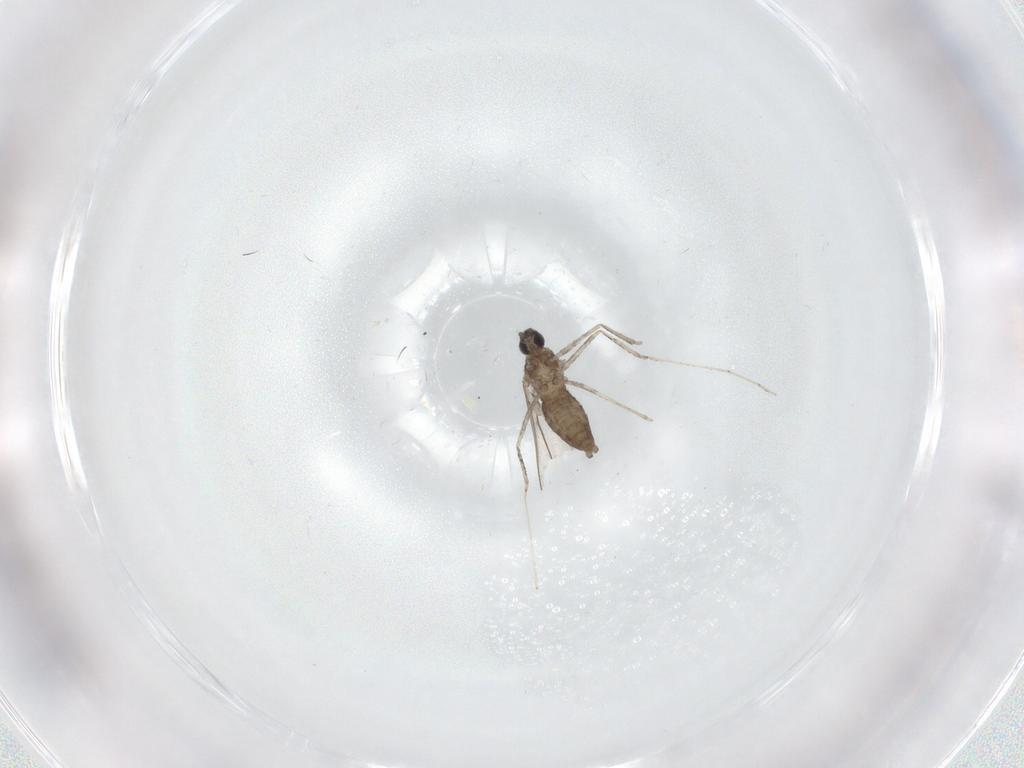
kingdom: Animalia
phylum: Arthropoda
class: Insecta
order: Diptera
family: Cecidomyiidae
